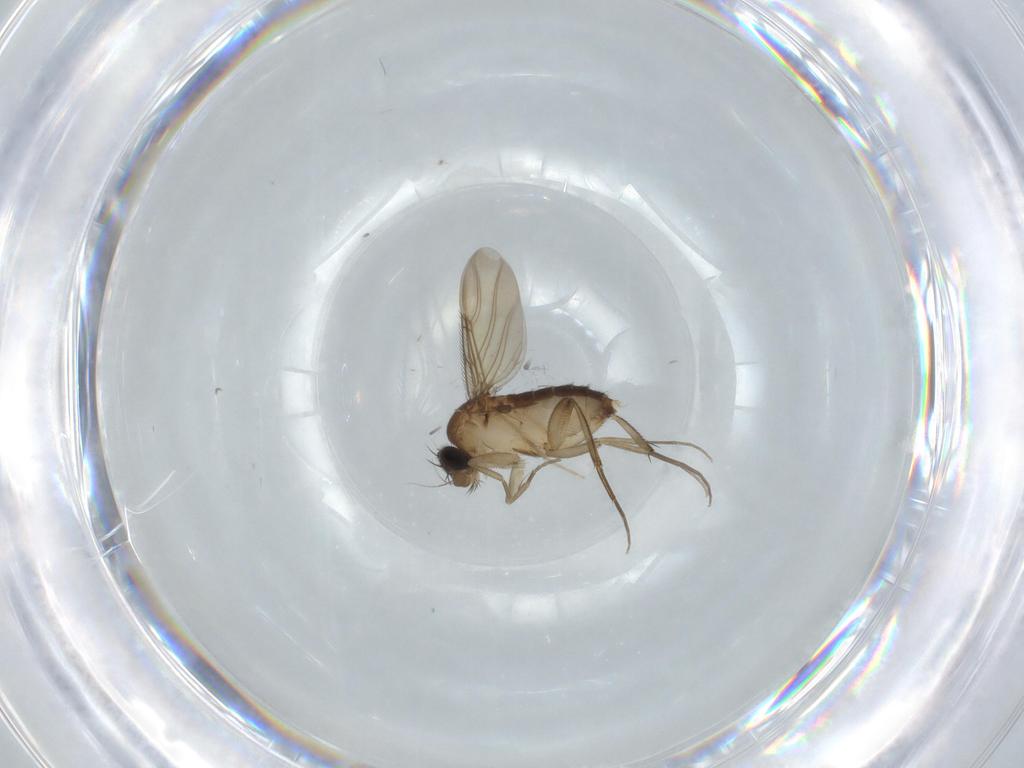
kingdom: Animalia
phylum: Arthropoda
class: Insecta
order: Diptera
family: Phoridae
